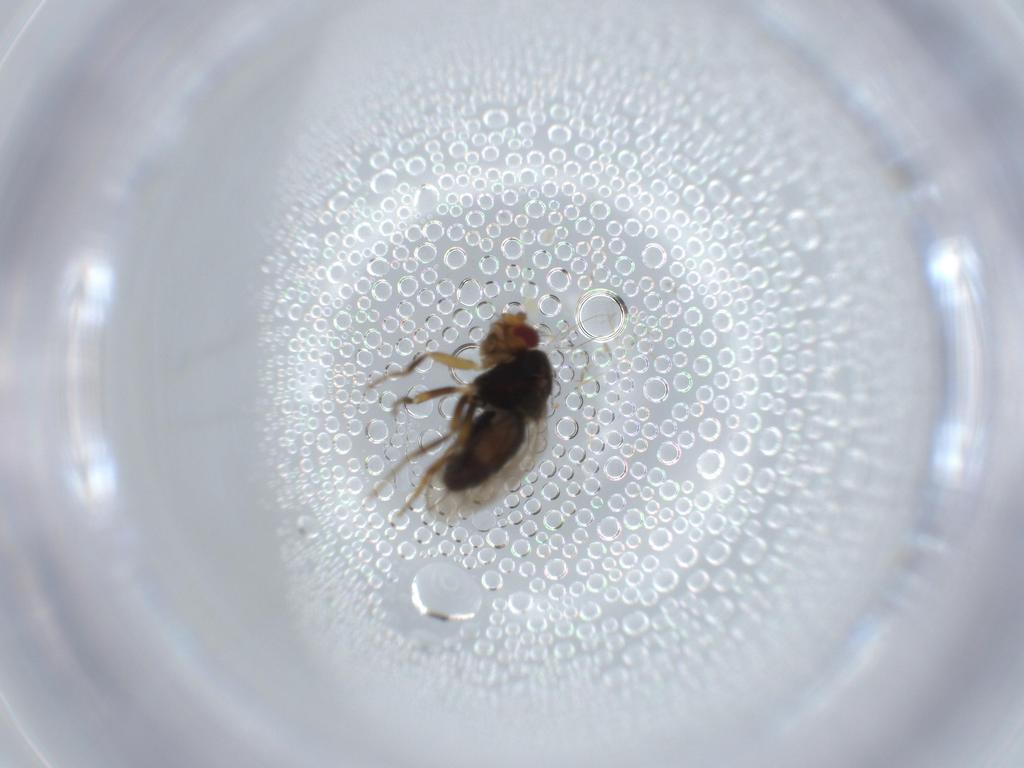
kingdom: Animalia
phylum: Arthropoda
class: Insecta
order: Diptera
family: Sphaeroceridae
